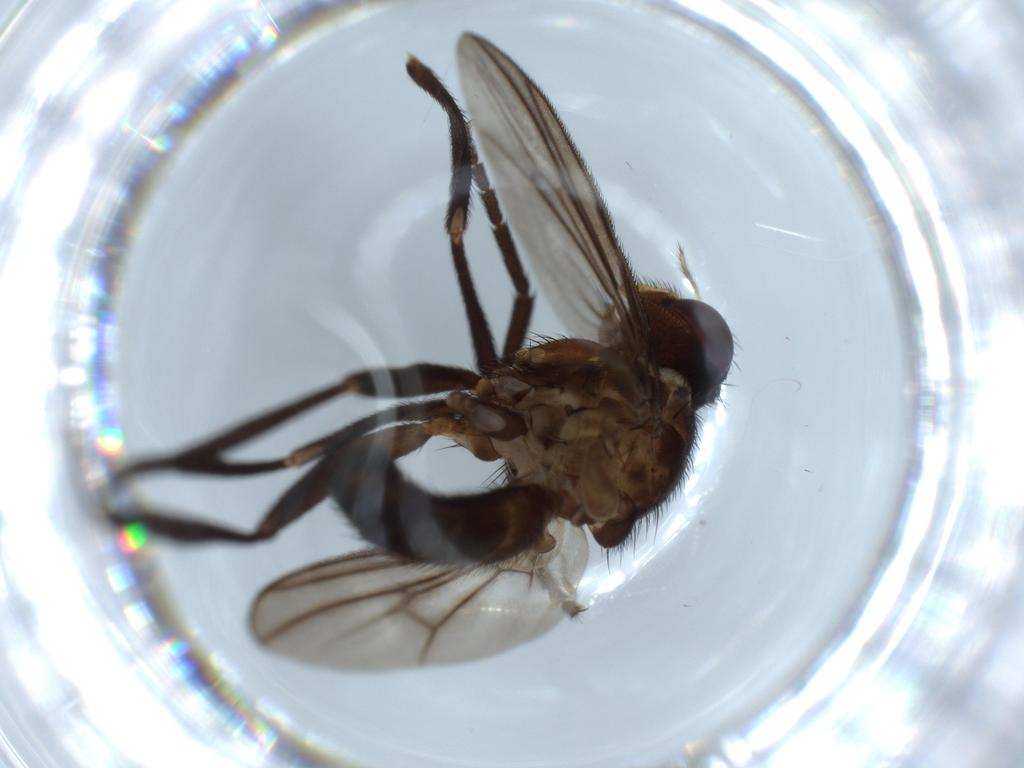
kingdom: Animalia
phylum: Arthropoda
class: Insecta
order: Diptera
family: Calliphoridae
